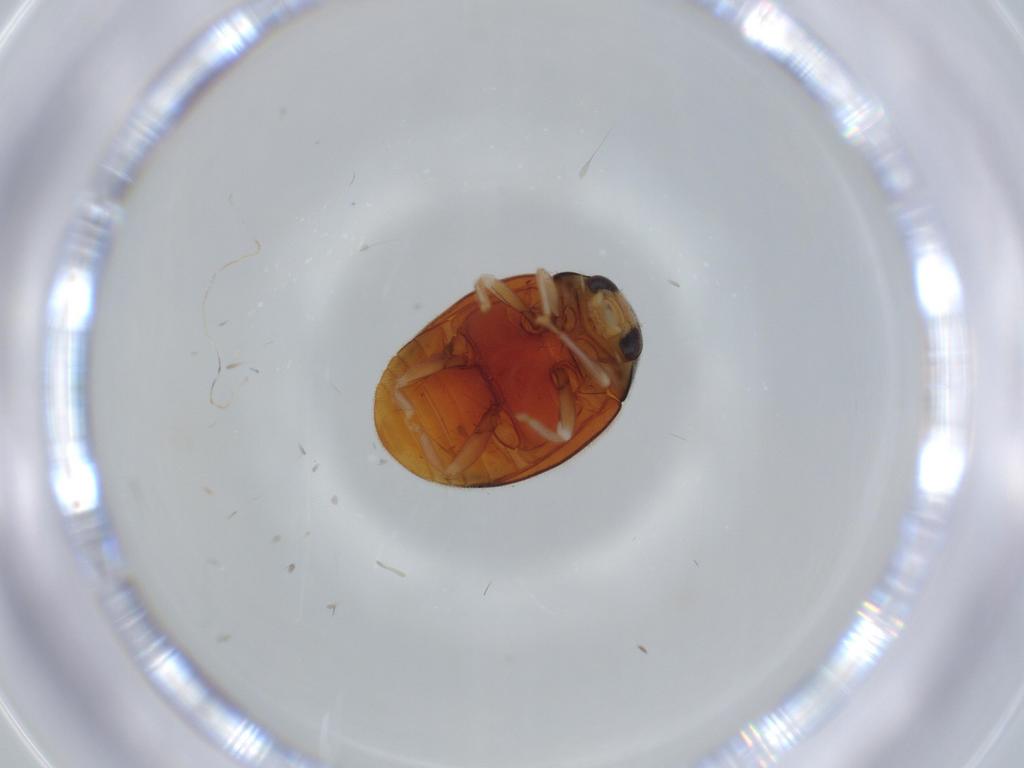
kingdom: Animalia
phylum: Arthropoda
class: Insecta
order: Coleoptera
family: Coccinellidae
